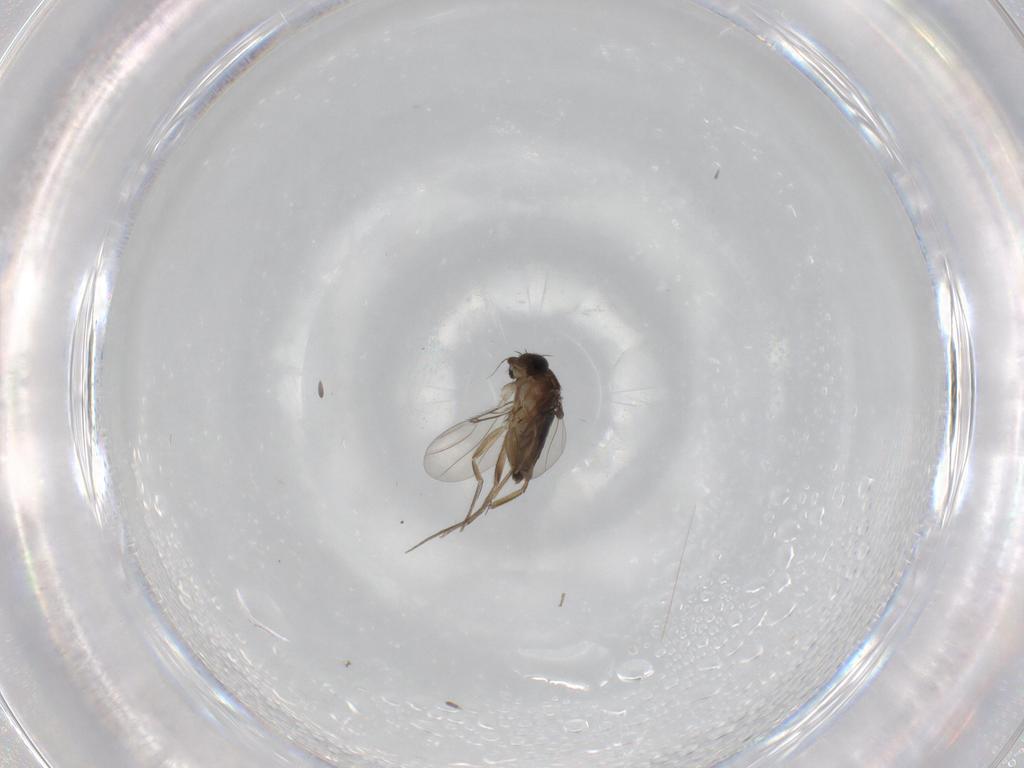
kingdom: Animalia
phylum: Arthropoda
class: Insecta
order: Diptera
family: Phoridae
